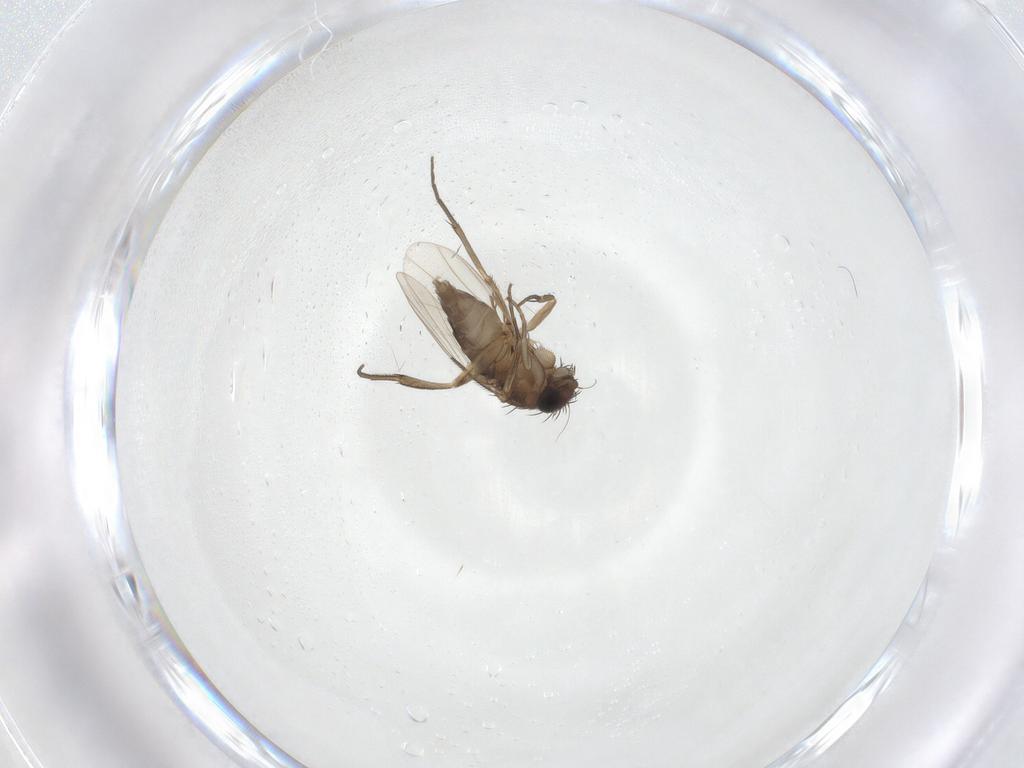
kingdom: Animalia
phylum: Arthropoda
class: Insecta
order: Diptera
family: Phoridae
